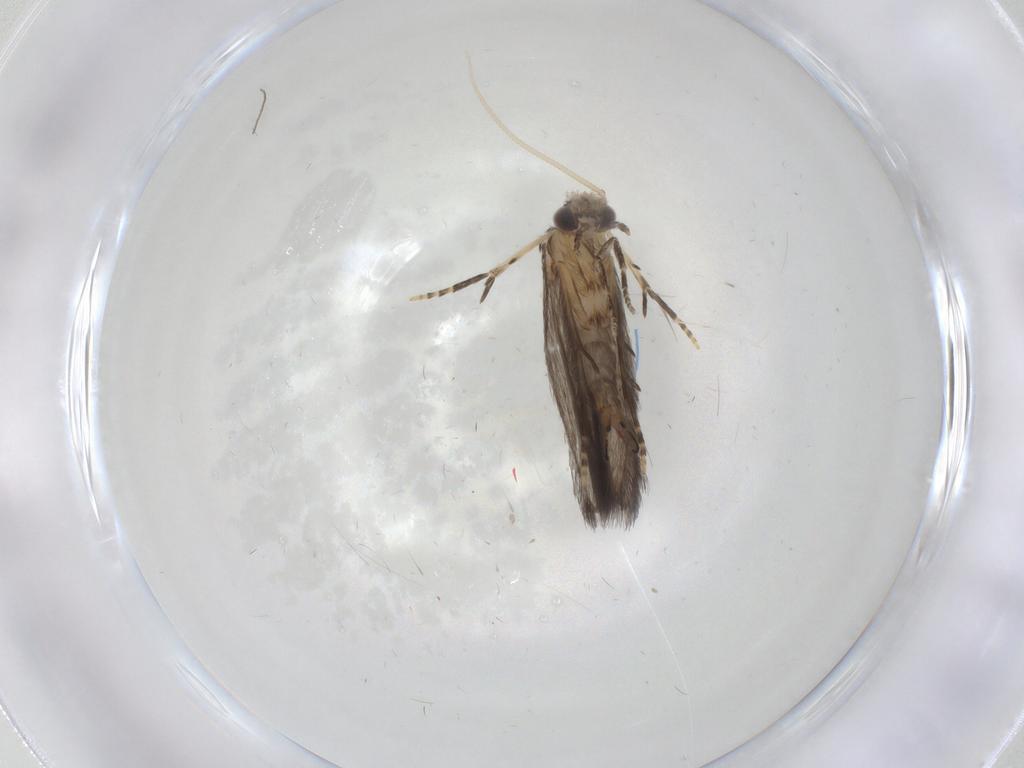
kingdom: Animalia
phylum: Arthropoda
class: Insecta
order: Trichoptera
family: Hydroptilidae
